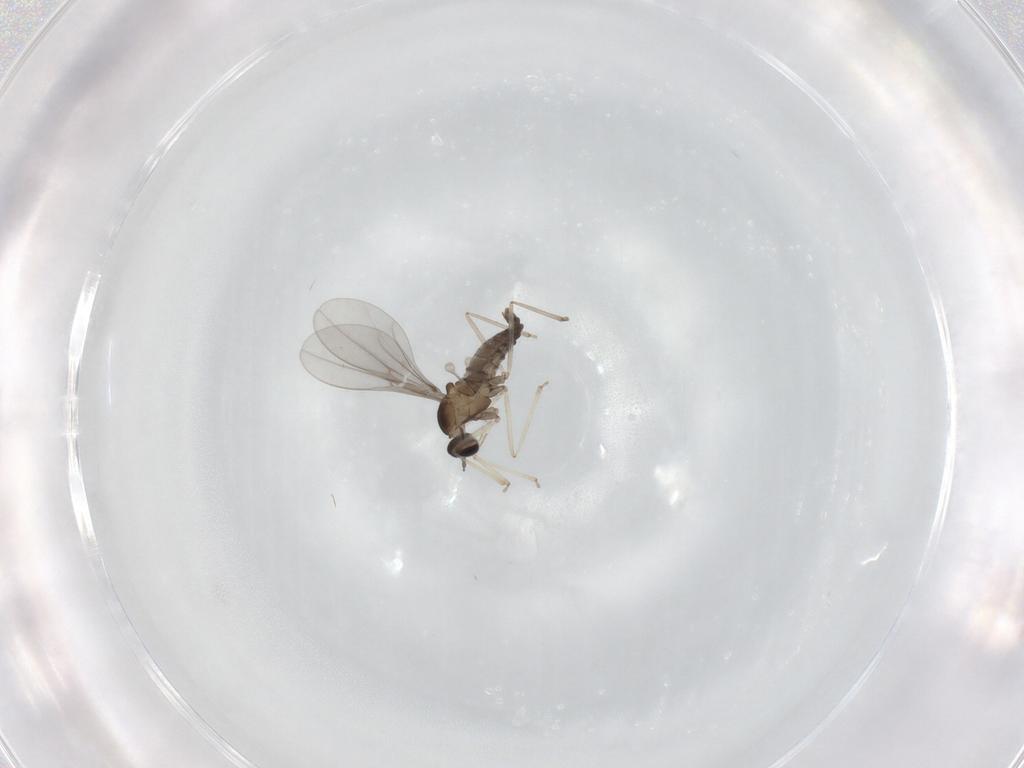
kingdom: Animalia
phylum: Arthropoda
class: Insecta
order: Diptera
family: Cecidomyiidae
